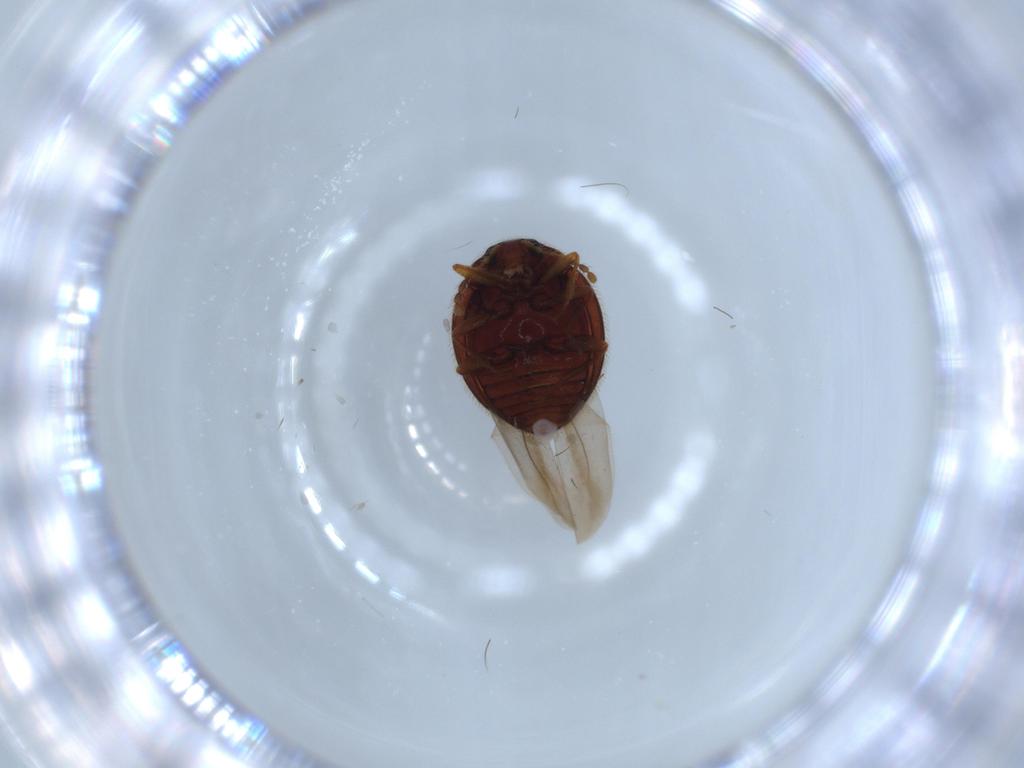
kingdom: Animalia
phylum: Arthropoda
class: Insecta
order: Coleoptera
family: Anamorphidae
